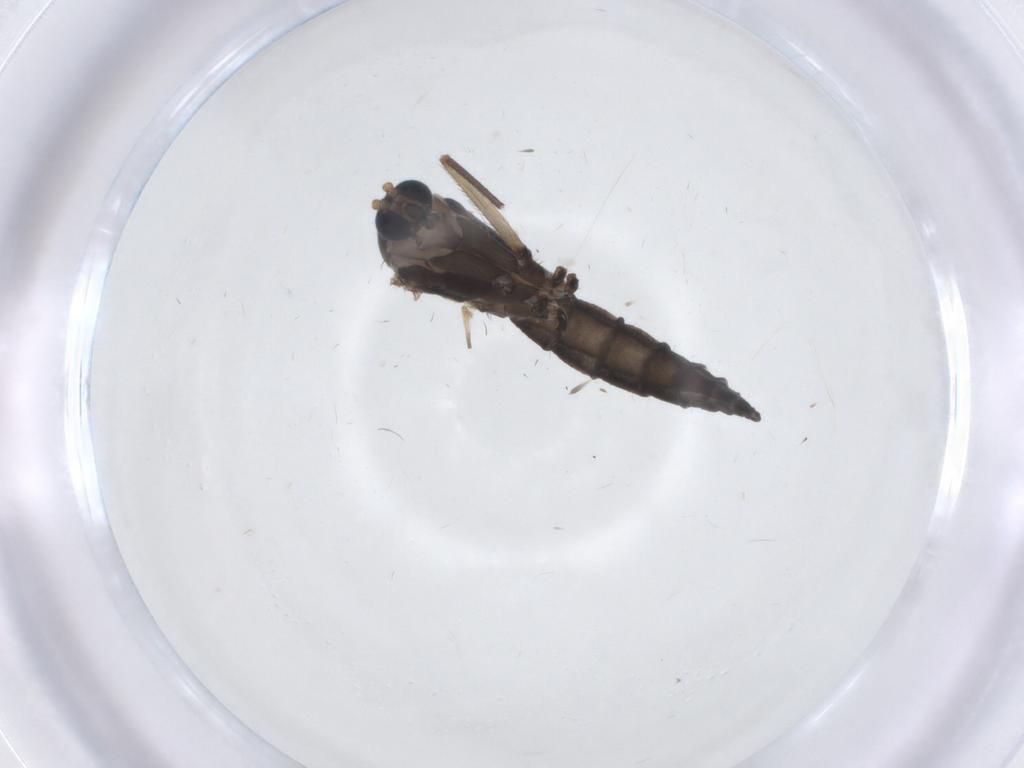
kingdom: Animalia
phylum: Arthropoda
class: Insecta
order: Diptera
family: Sciaridae
